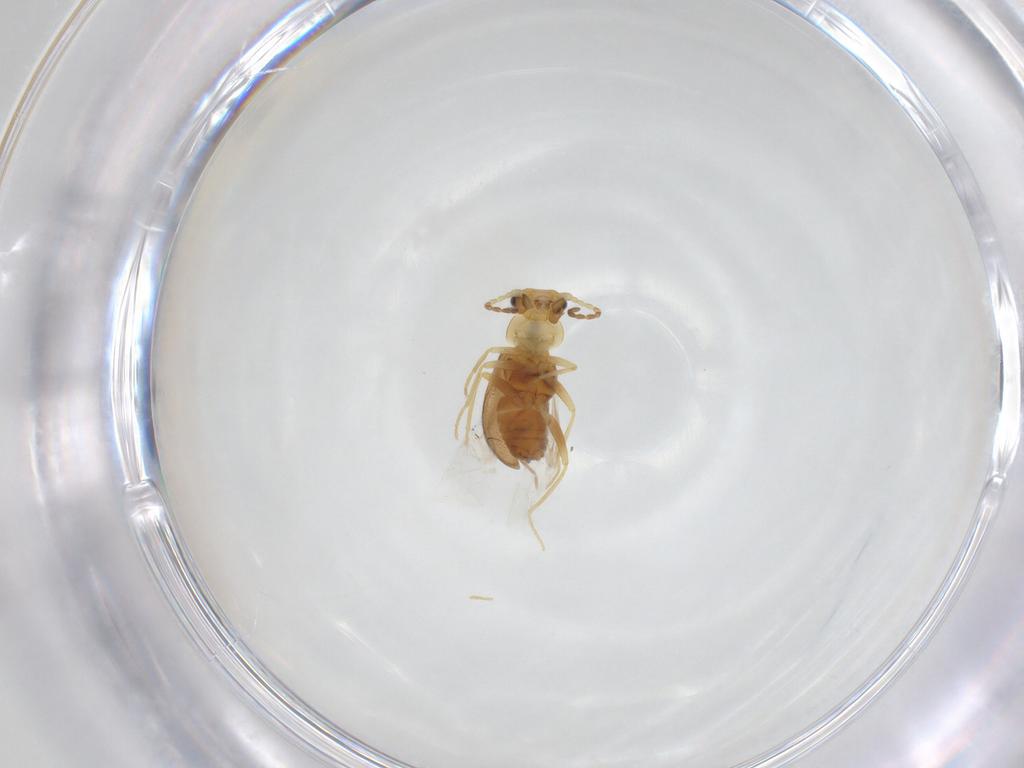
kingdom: Animalia
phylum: Arthropoda
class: Insecta
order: Coleoptera
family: Melyridae
